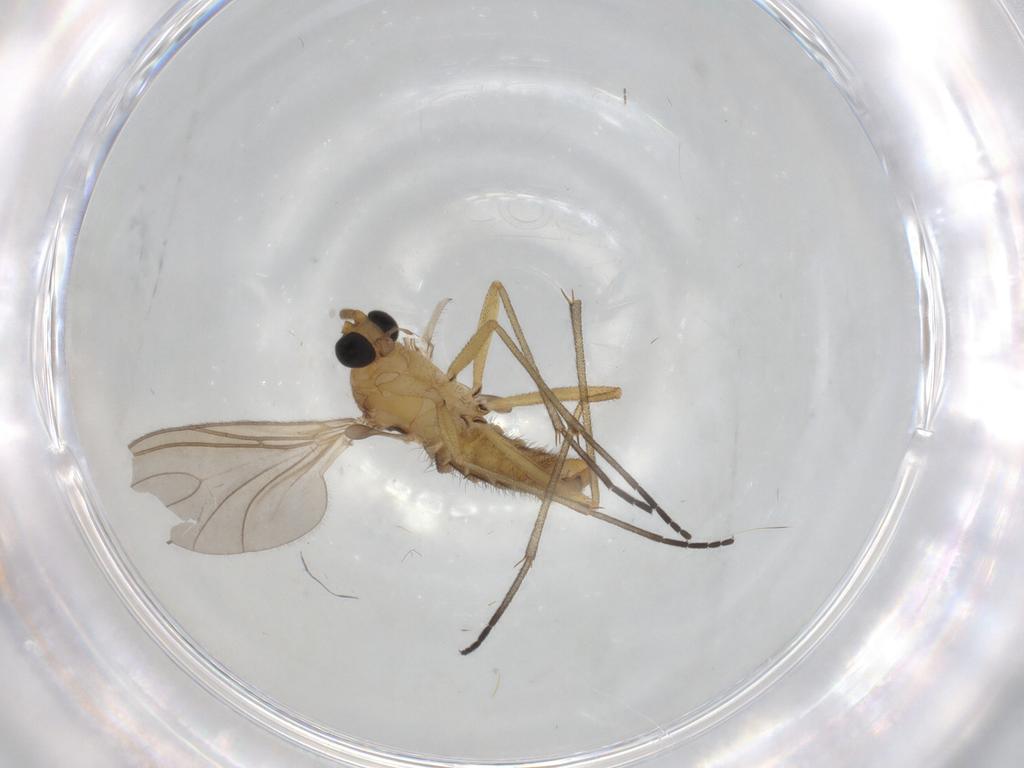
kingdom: Animalia
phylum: Arthropoda
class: Insecta
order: Diptera
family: Sciaridae
